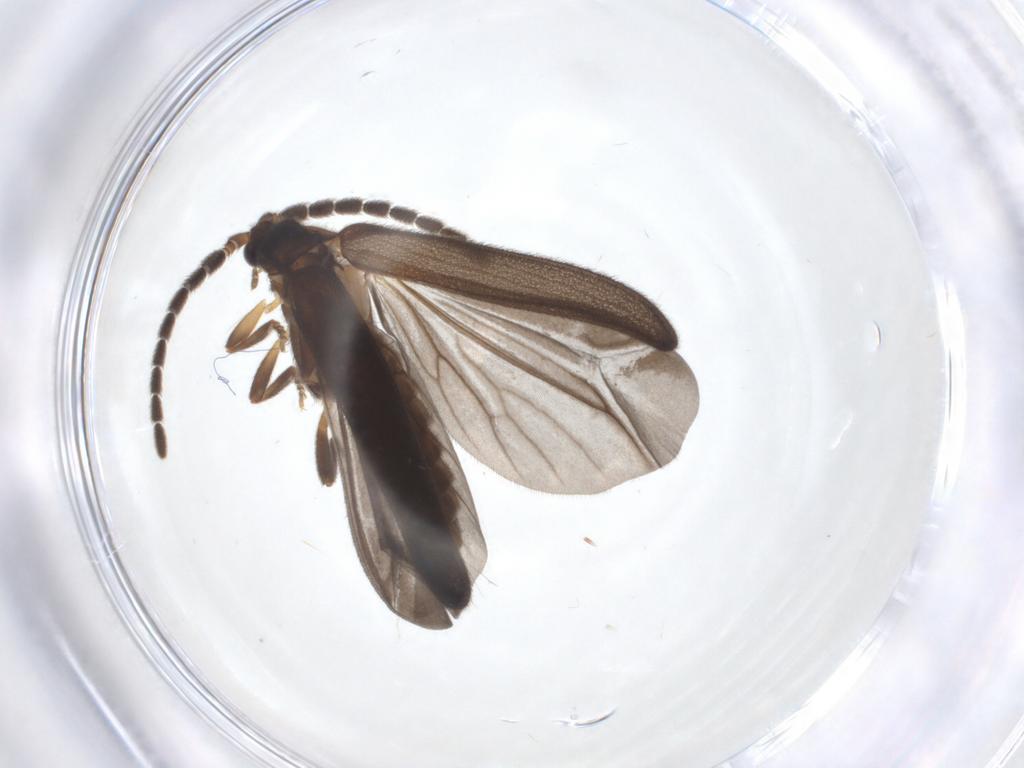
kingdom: Animalia
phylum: Arthropoda
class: Insecta
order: Coleoptera
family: Lycidae
